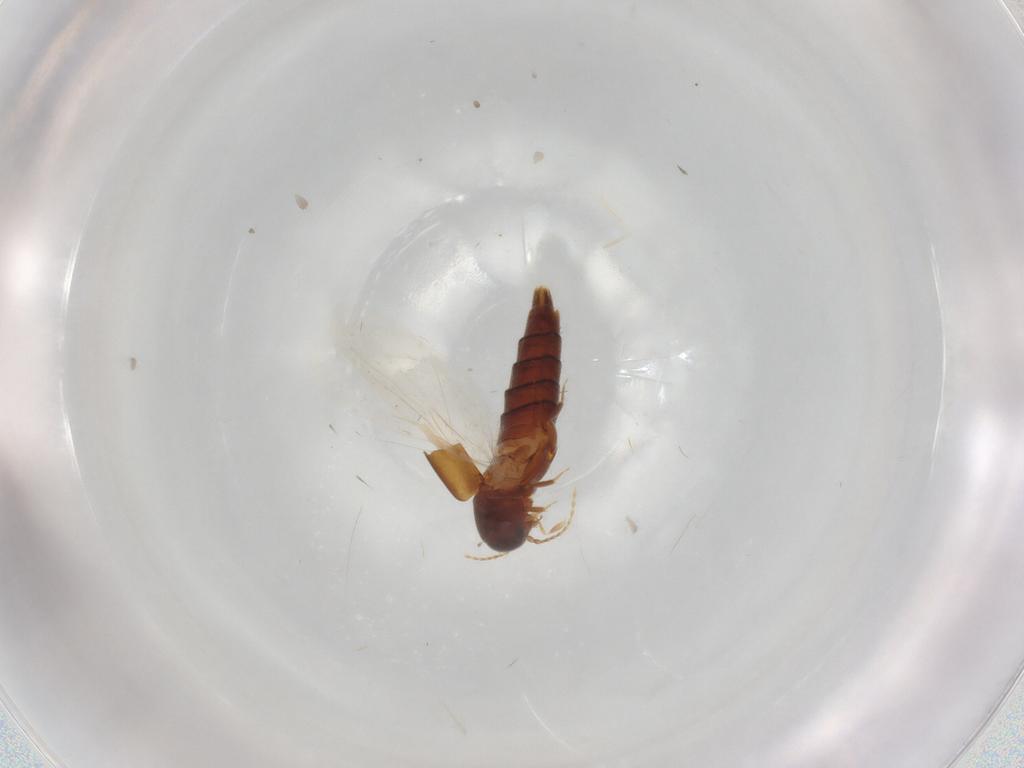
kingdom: Animalia
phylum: Arthropoda
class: Insecta
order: Coleoptera
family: Staphylinidae
